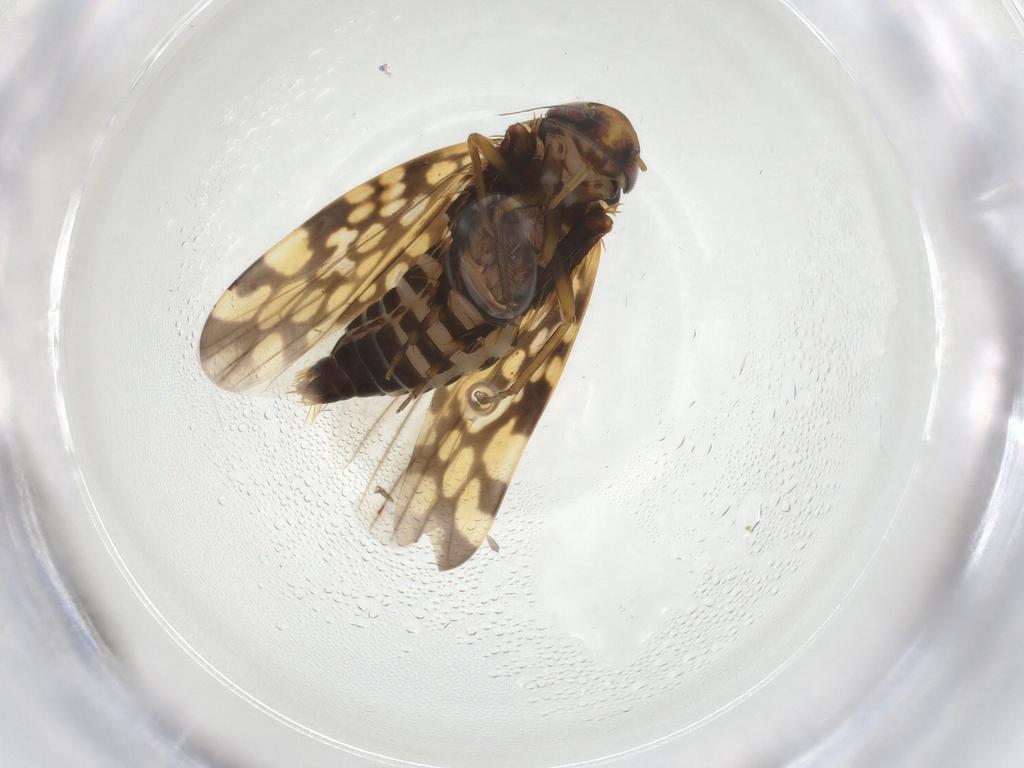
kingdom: Animalia
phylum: Arthropoda
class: Insecta
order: Hemiptera
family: Cicadellidae
